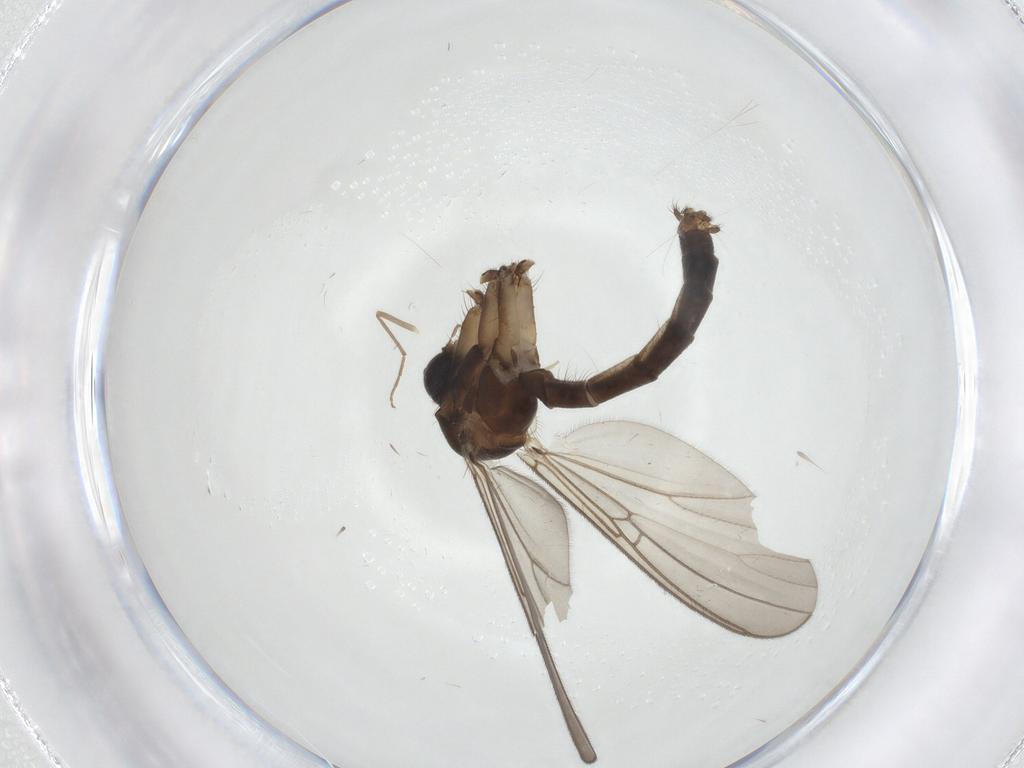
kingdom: Animalia
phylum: Arthropoda
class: Insecta
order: Diptera
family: Mycetophilidae
